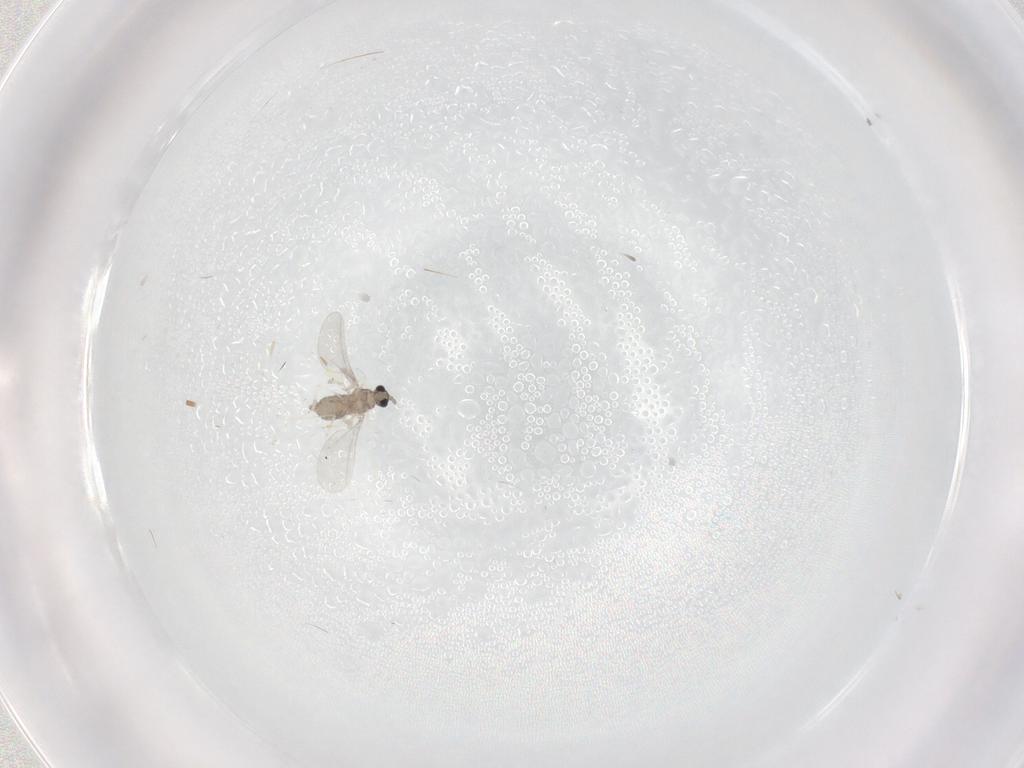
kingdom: Animalia
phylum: Arthropoda
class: Insecta
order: Diptera
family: Cecidomyiidae
